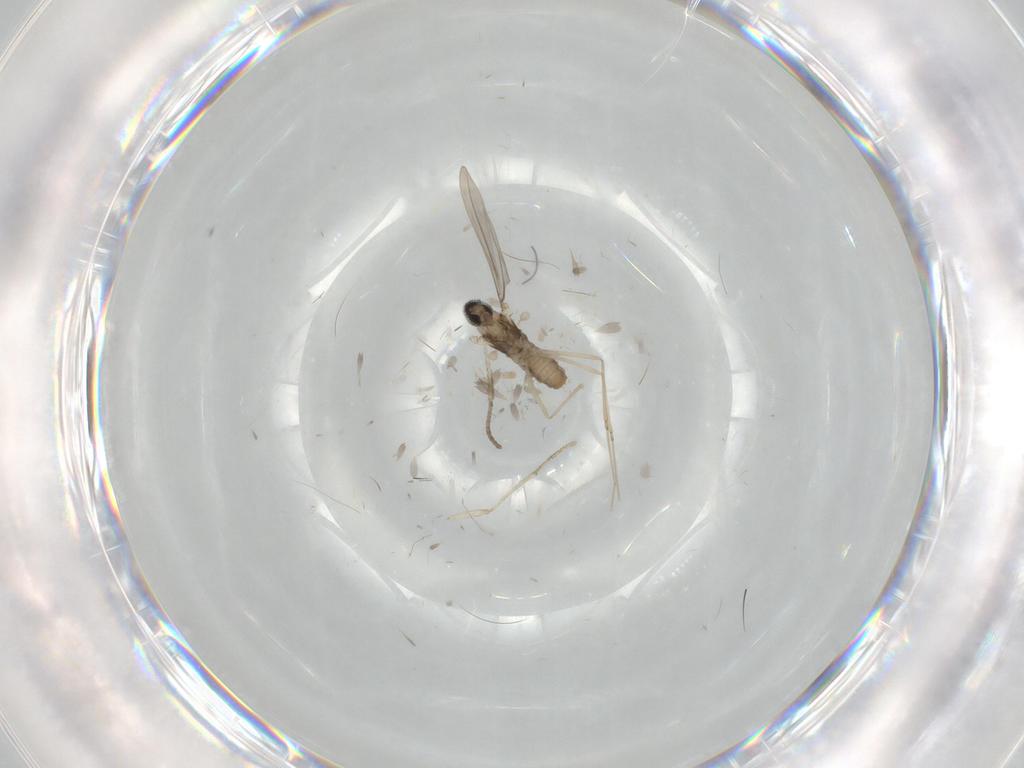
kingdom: Animalia
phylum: Arthropoda
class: Insecta
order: Diptera
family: Cecidomyiidae
